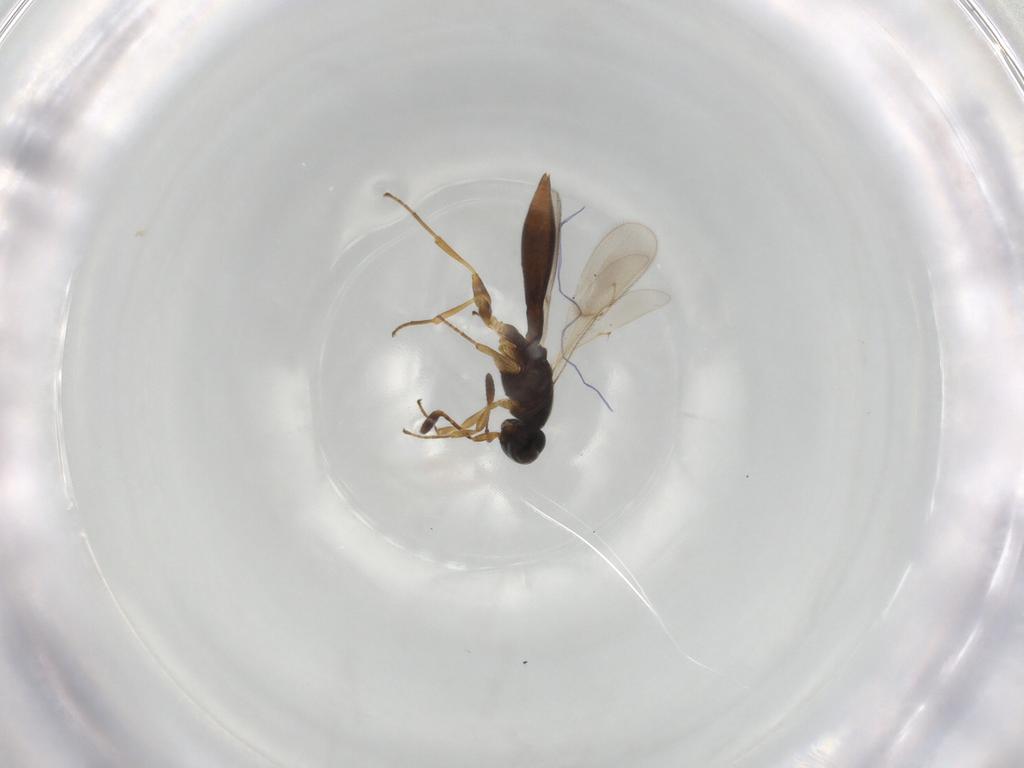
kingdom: Animalia
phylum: Arthropoda
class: Insecta
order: Hymenoptera
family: Scelionidae
